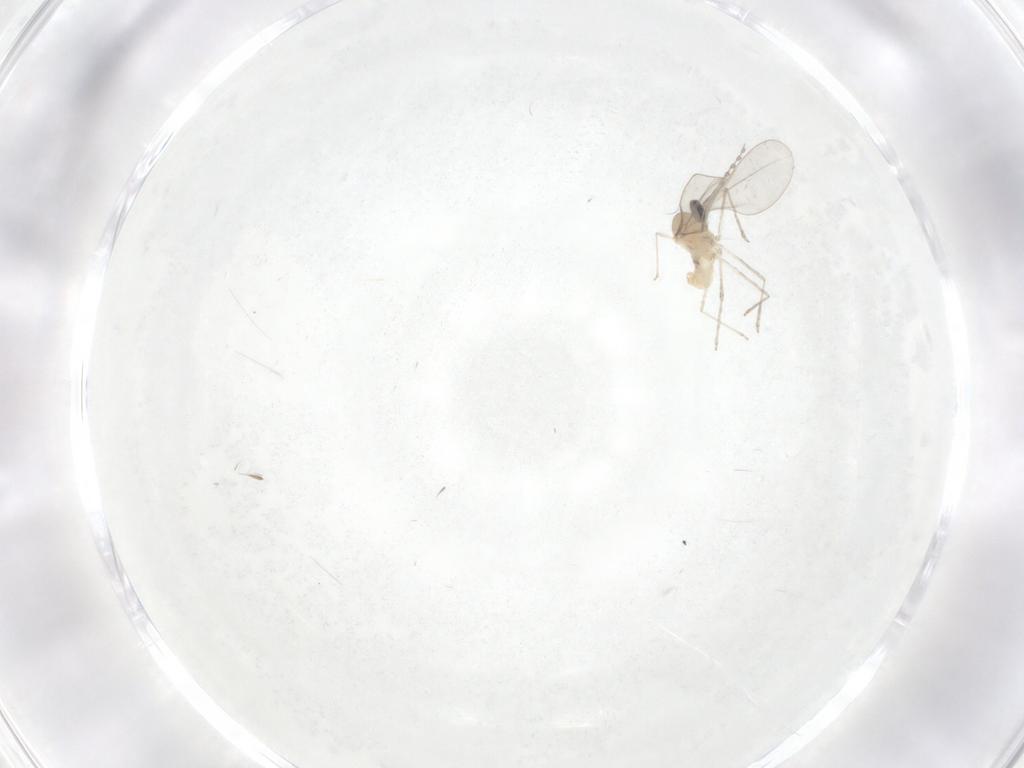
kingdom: Animalia
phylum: Arthropoda
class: Insecta
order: Diptera
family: Cecidomyiidae
